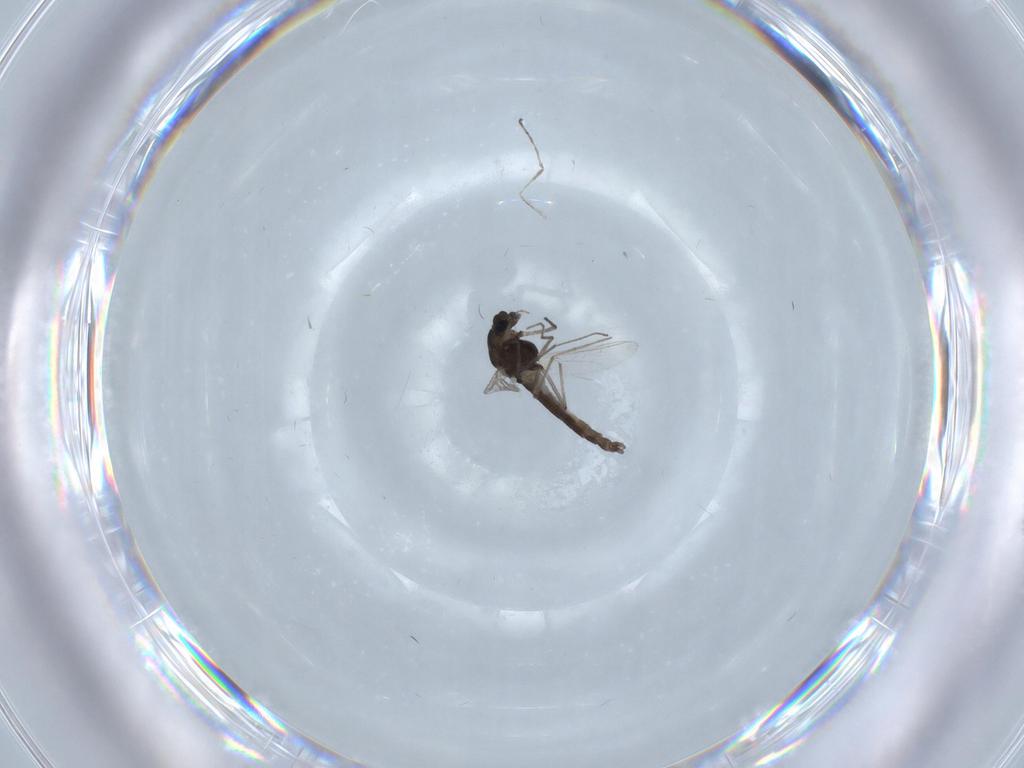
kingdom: Animalia
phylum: Arthropoda
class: Insecta
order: Diptera
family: Chironomidae
